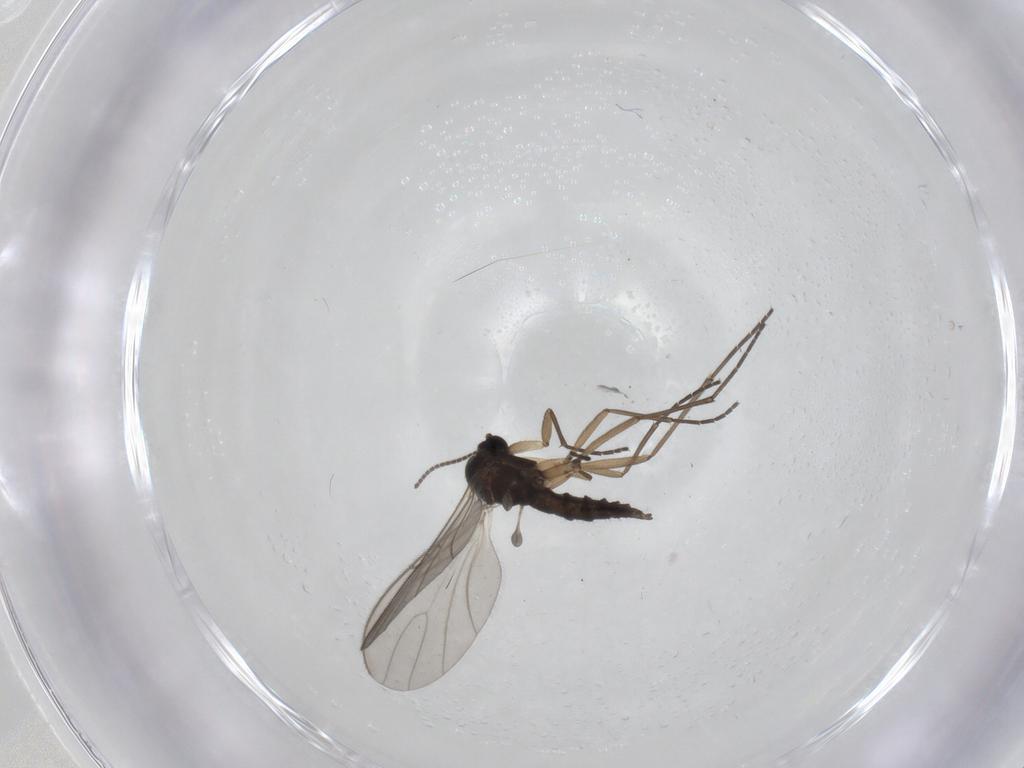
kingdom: Animalia
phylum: Arthropoda
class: Insecta
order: Diptera
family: Sciaridae
